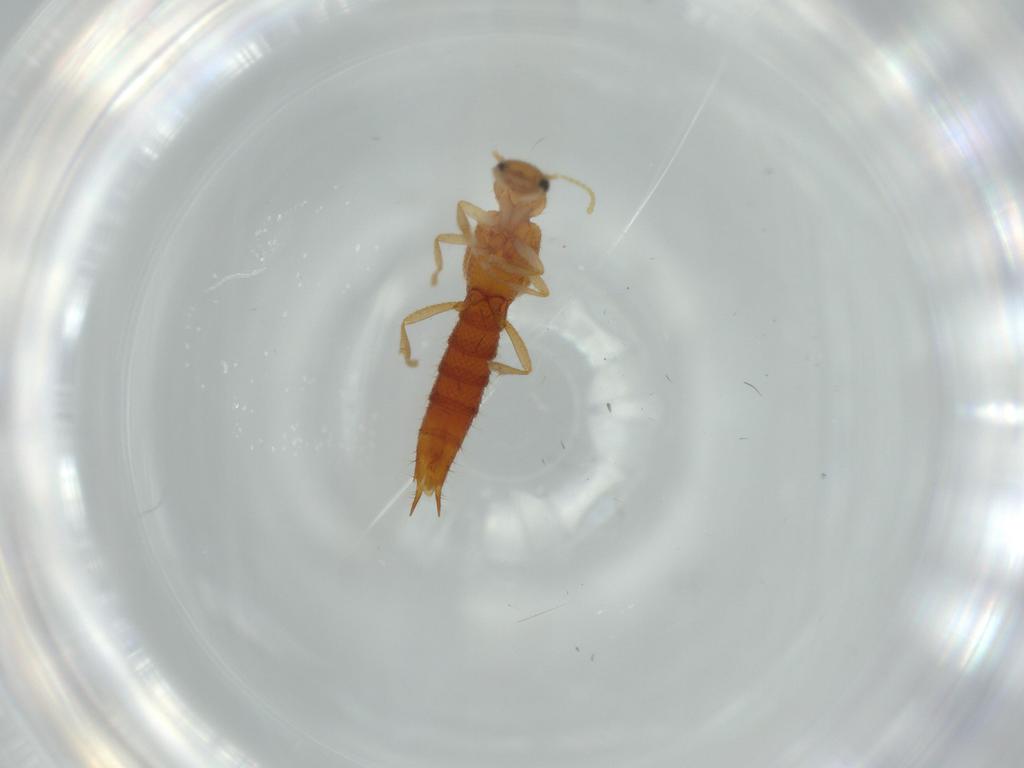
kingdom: Animalia
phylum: Arthropoda
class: Insecta
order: Coleoptera
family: Staphylinidae
